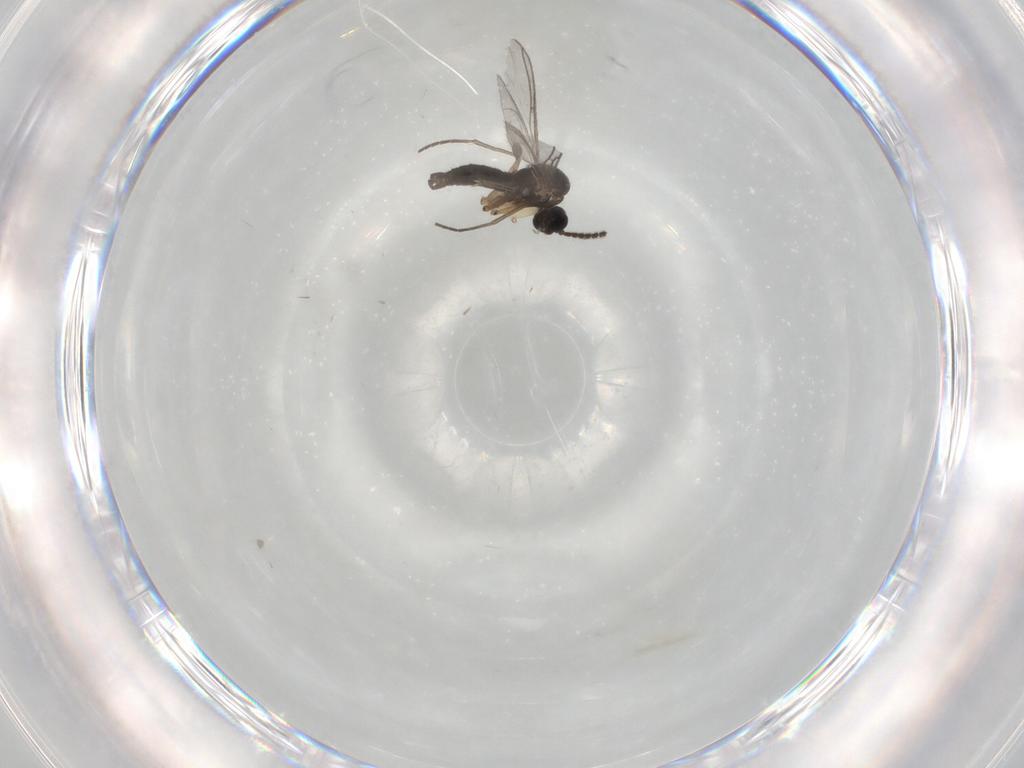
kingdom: Animalia
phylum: Arthropoda
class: Insecta
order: Diptera
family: Sciaridae
